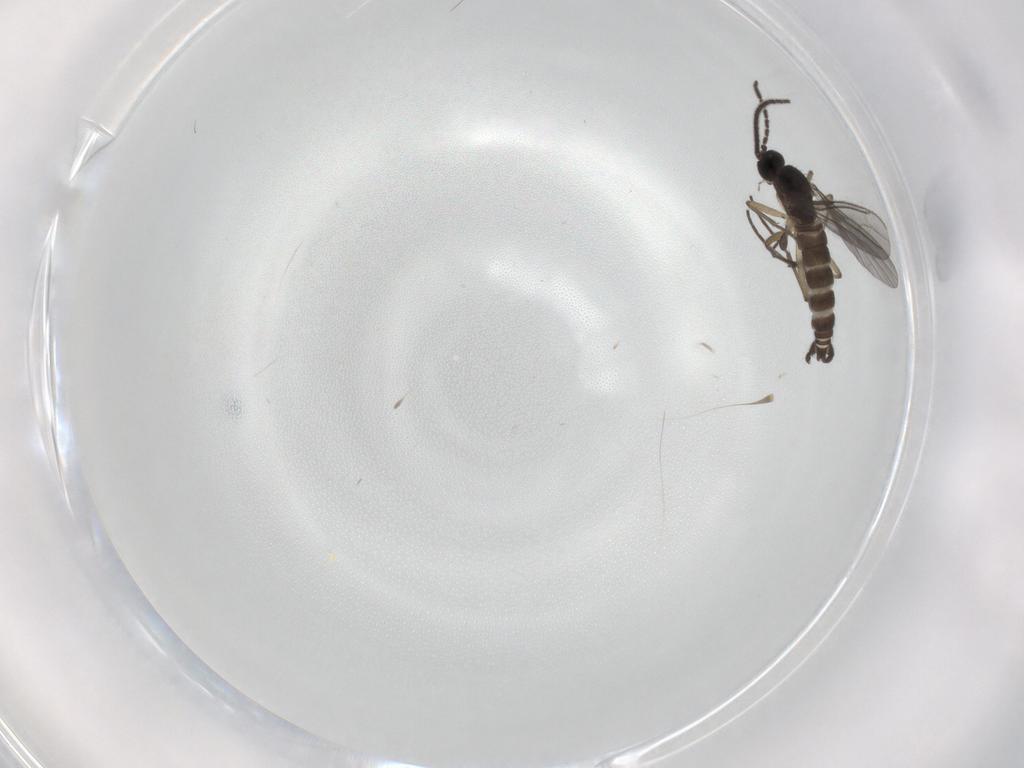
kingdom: Animalia
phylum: Arthropoda
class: Insecta
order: Diptera
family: Sciaridae
